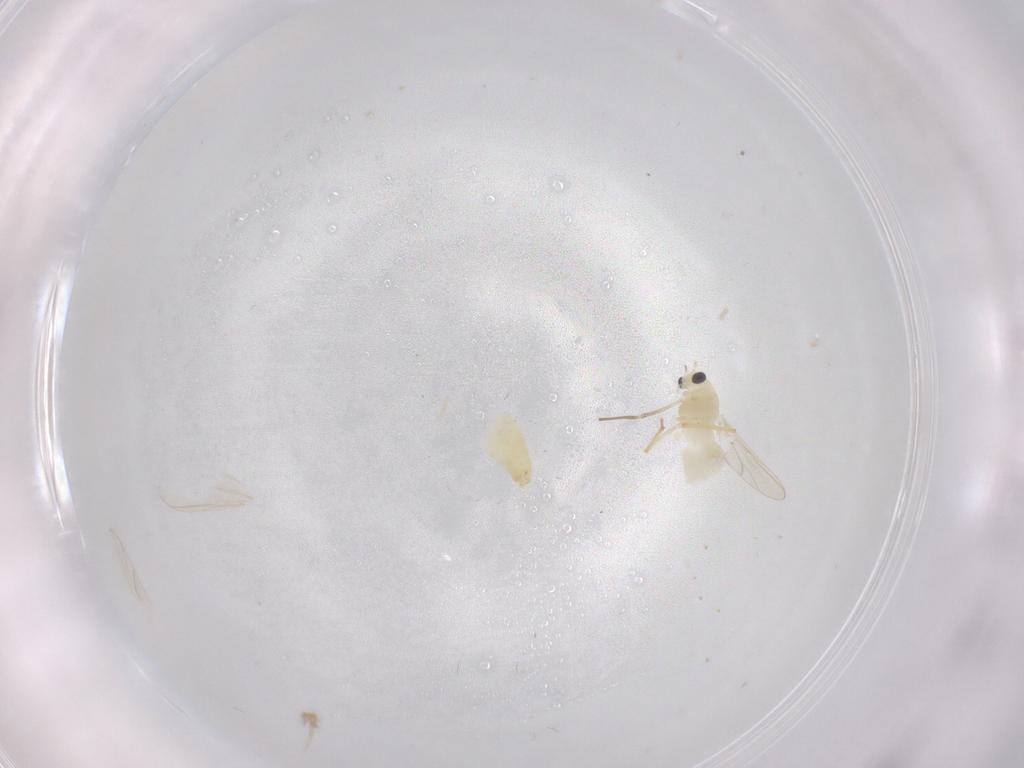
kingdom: Animalia
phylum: Arthropoda
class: Insecta
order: Diptera
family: Chironomidae
